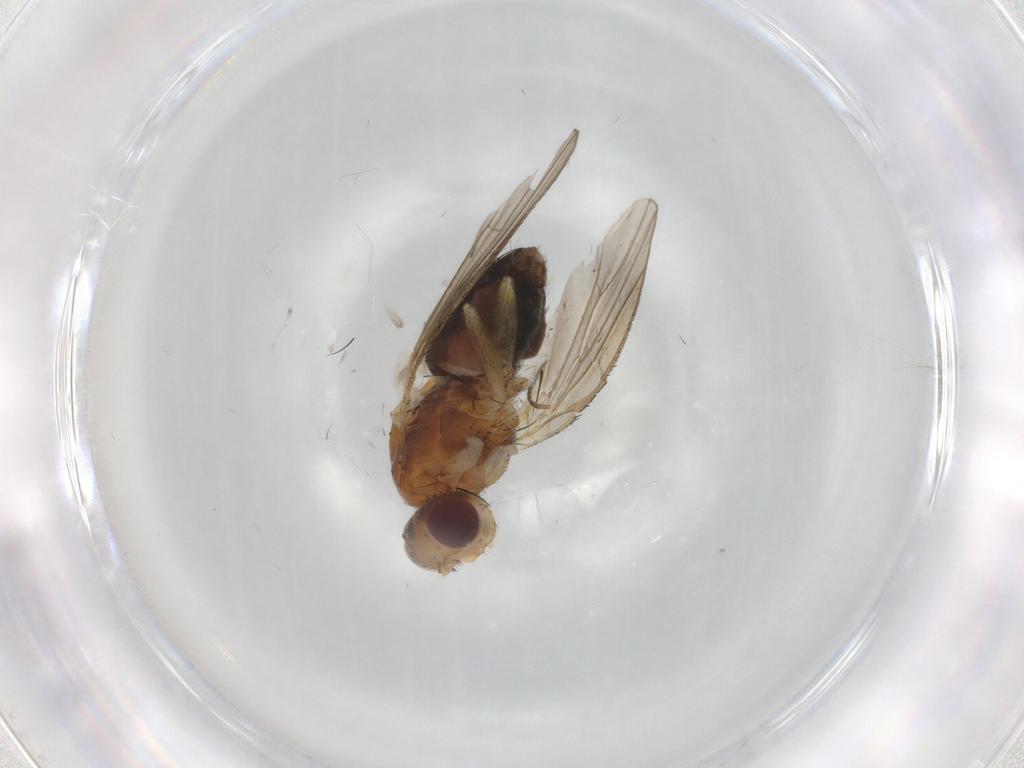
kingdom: Animalia
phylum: Arthropoda
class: Insecta
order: Diptera
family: Heleomyzidae
